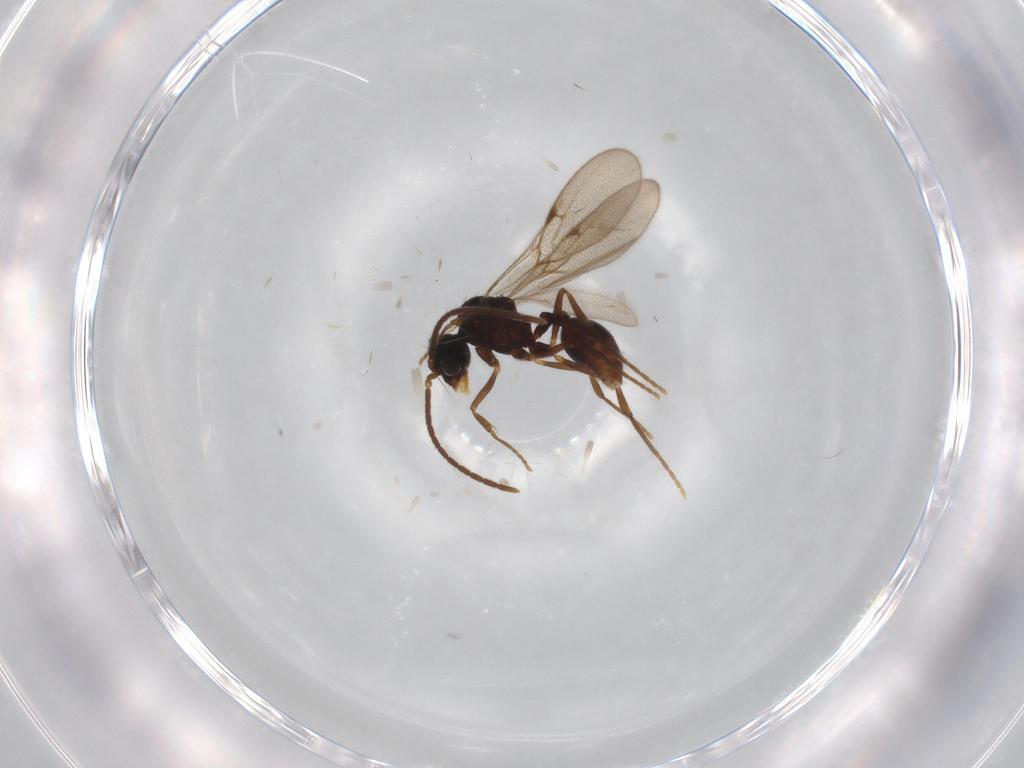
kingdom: Animalia
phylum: Arthropoda
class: Insecta
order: Hymenoptera
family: Formicidae
